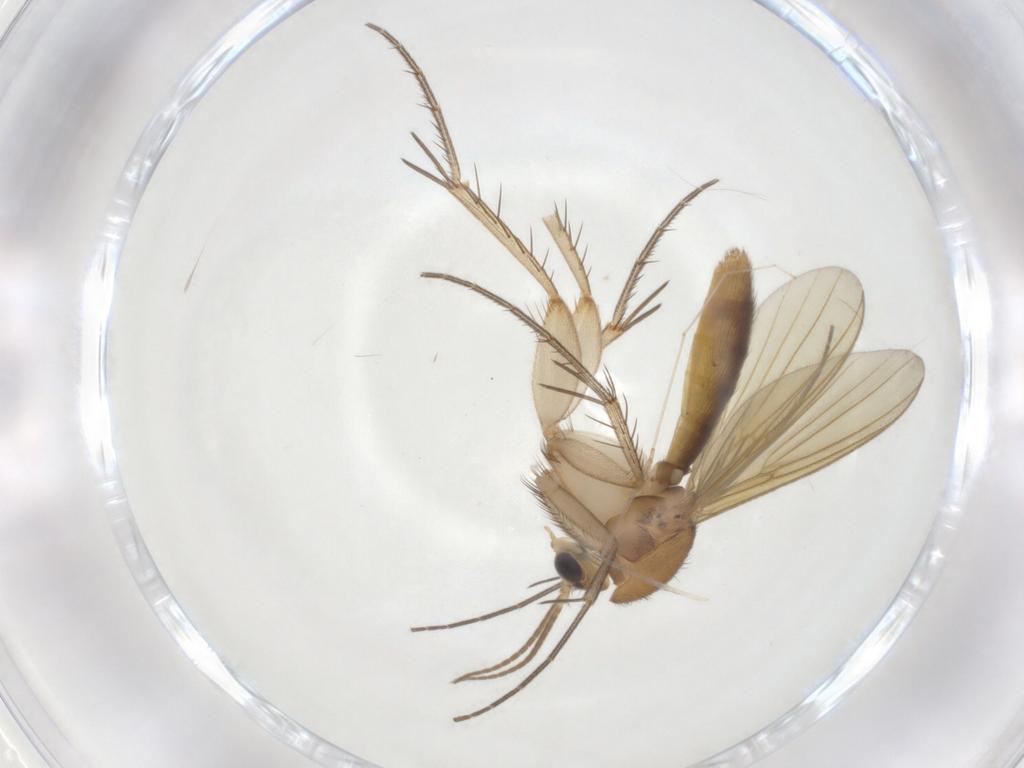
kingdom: Animalia
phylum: Arthropoda
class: Insecta
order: Diptera
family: Mycetophilidae
